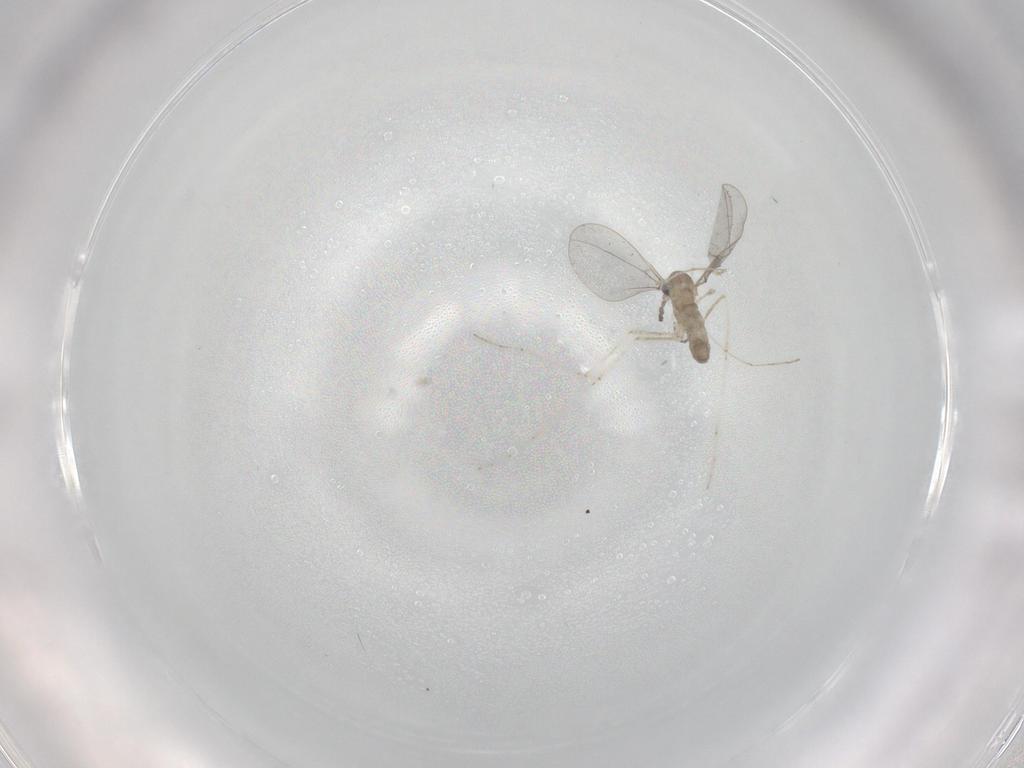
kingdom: Animalia
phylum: Arthropoda
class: Insecta
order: Diptera
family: Cecidomyiidae
